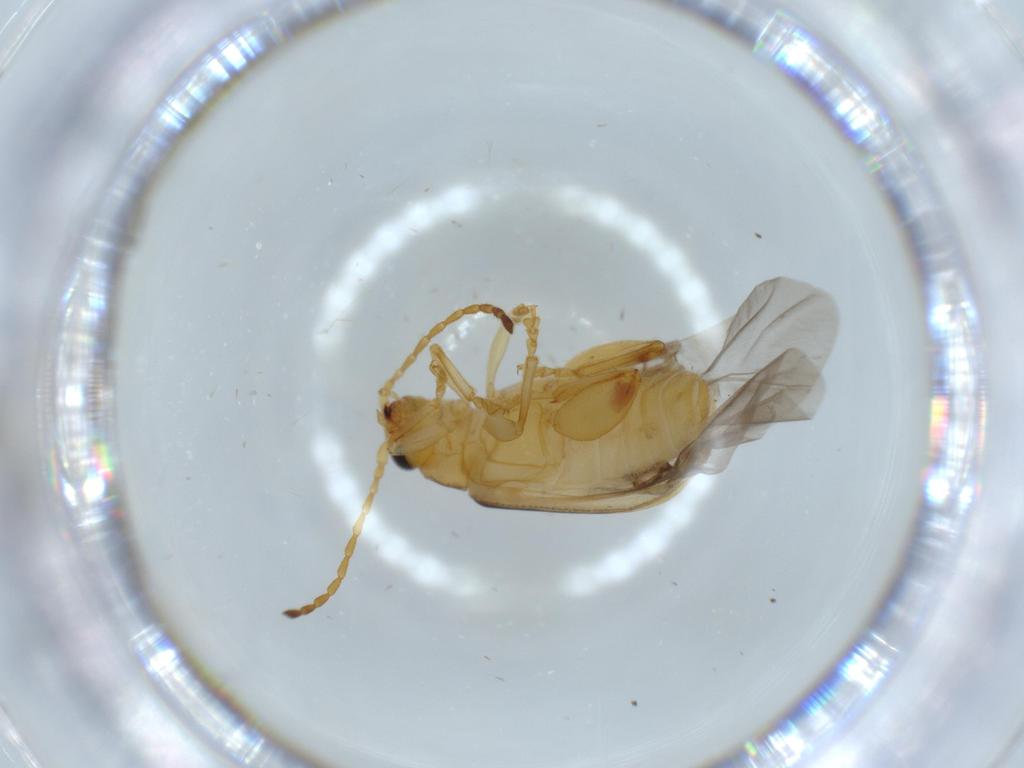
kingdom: Animalia
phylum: Arthropoda
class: Insecta
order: Coleoptera
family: Chrysomelidae
